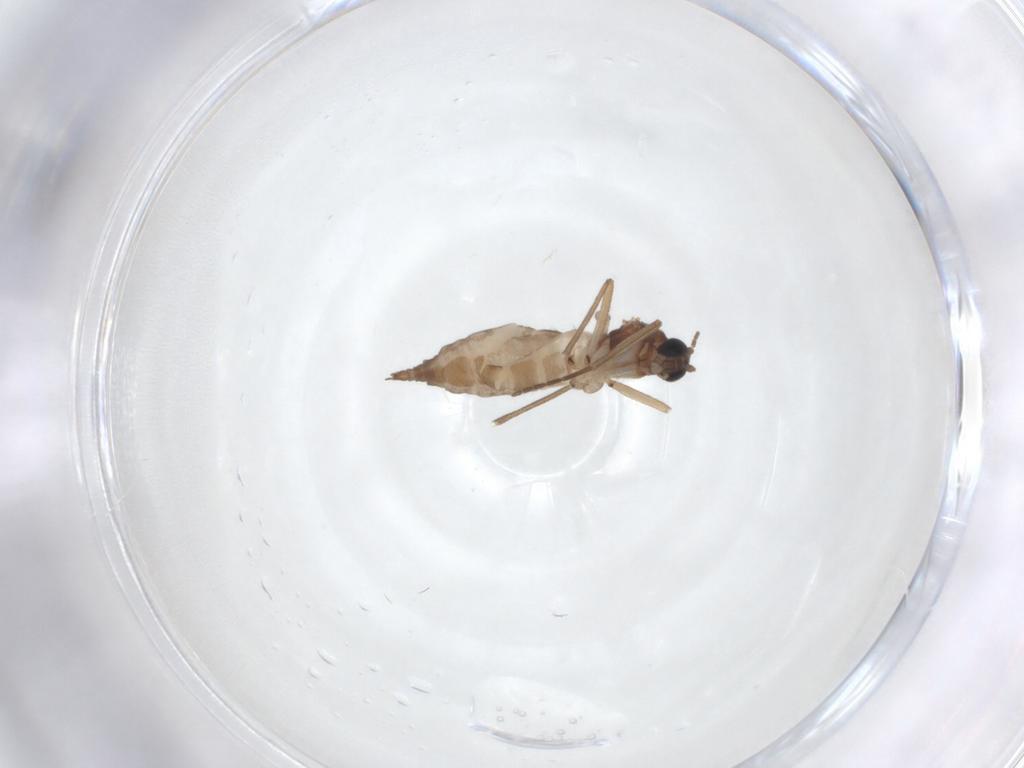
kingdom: Animalia
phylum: Arthropoda
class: Insecta
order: Diptera
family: Sciaridae
